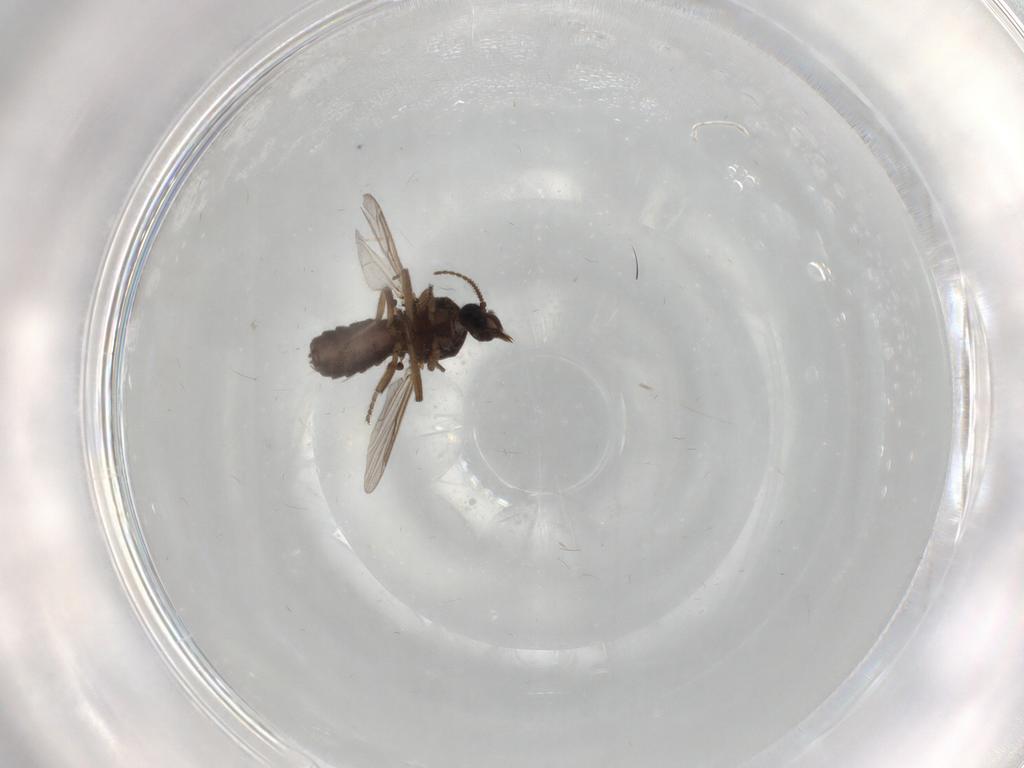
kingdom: Animalia
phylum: Arthropoda
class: Insecta
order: Diptera
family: Ceratopogonidae
